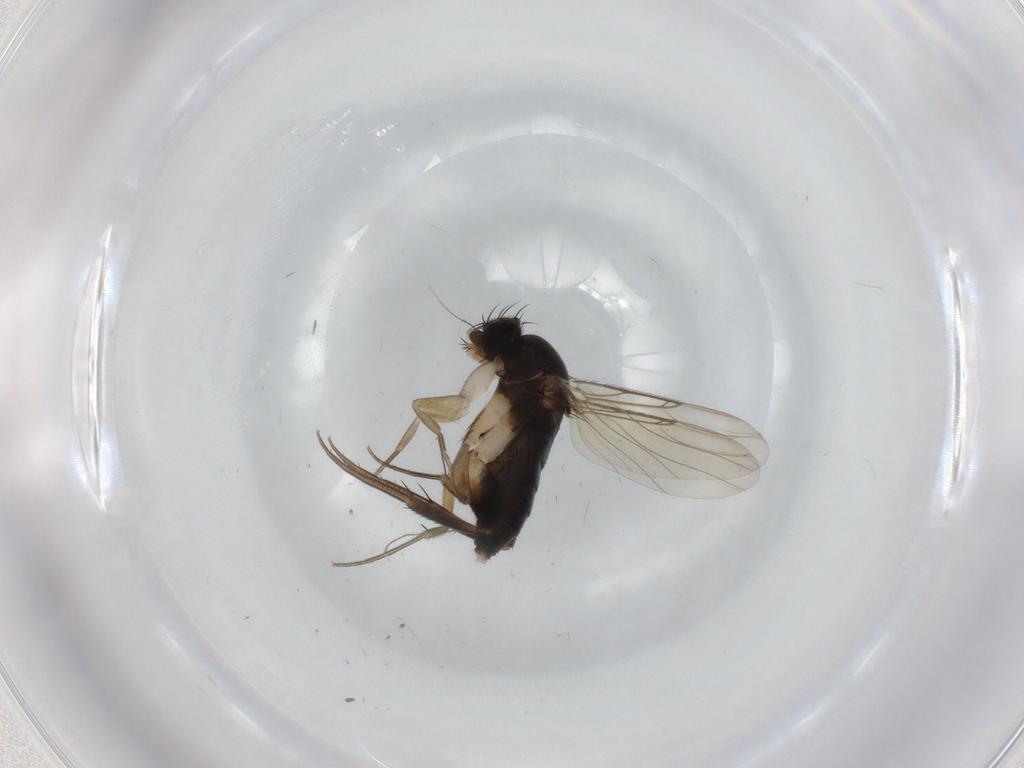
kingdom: Animalia
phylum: Arthropoda
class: Insecta
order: Diptera
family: Phoridae
